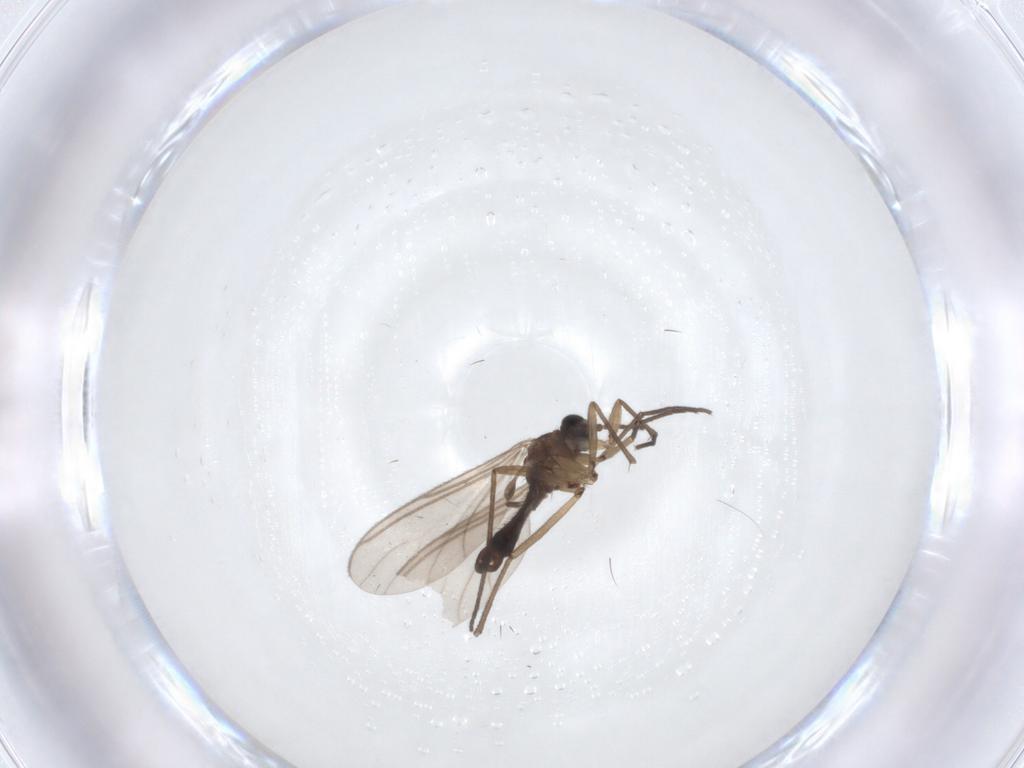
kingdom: Animalia
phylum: Arthropoda
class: Insecta
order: Diptera
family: Sciaridae
